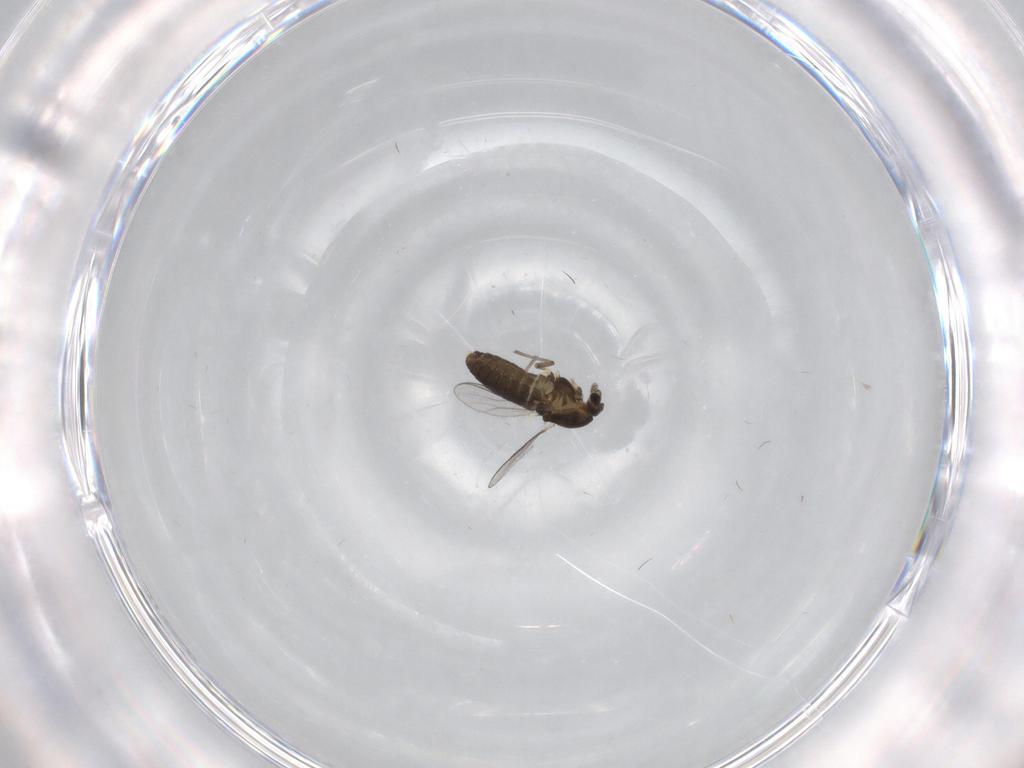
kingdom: Animalia
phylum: Arthropoda
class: Insecta
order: Diptera
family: Chironomidae
